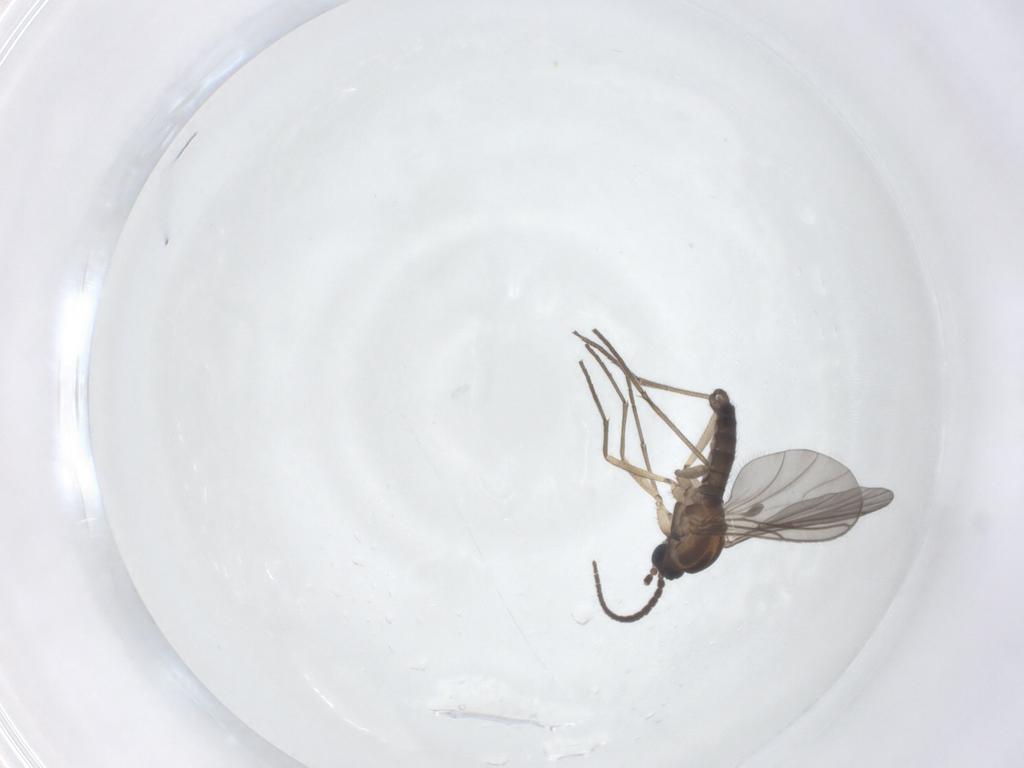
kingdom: Animalia
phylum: Arthropoda
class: Insecta
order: Diptera
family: Sciaridae
